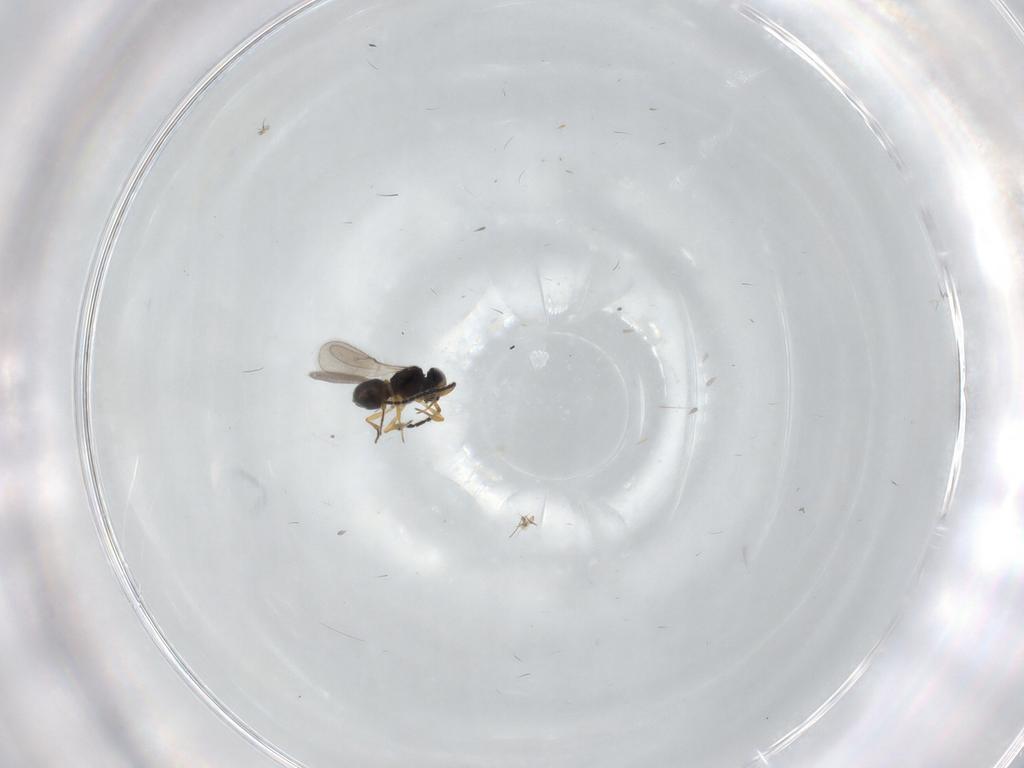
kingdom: Animalia
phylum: Arthropoda
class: Insecta
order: Hymenoptera
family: Scelionidae
